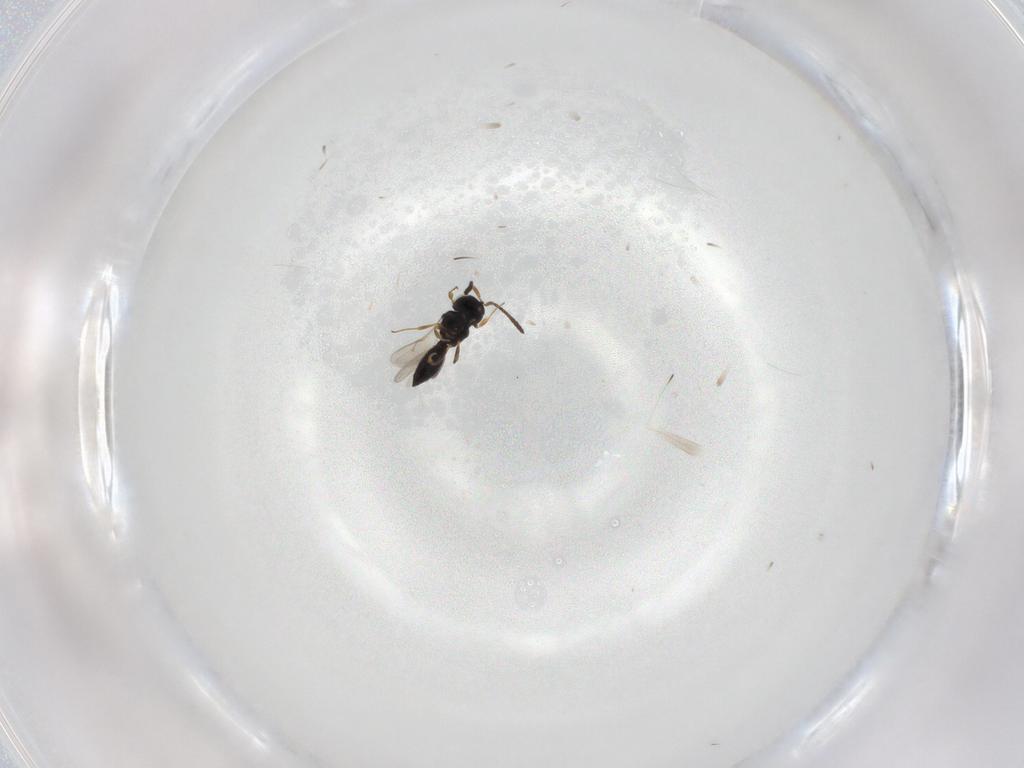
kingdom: Animalia
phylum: Arthropoda
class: Insecta
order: Hymenoptera
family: Scelionidae
